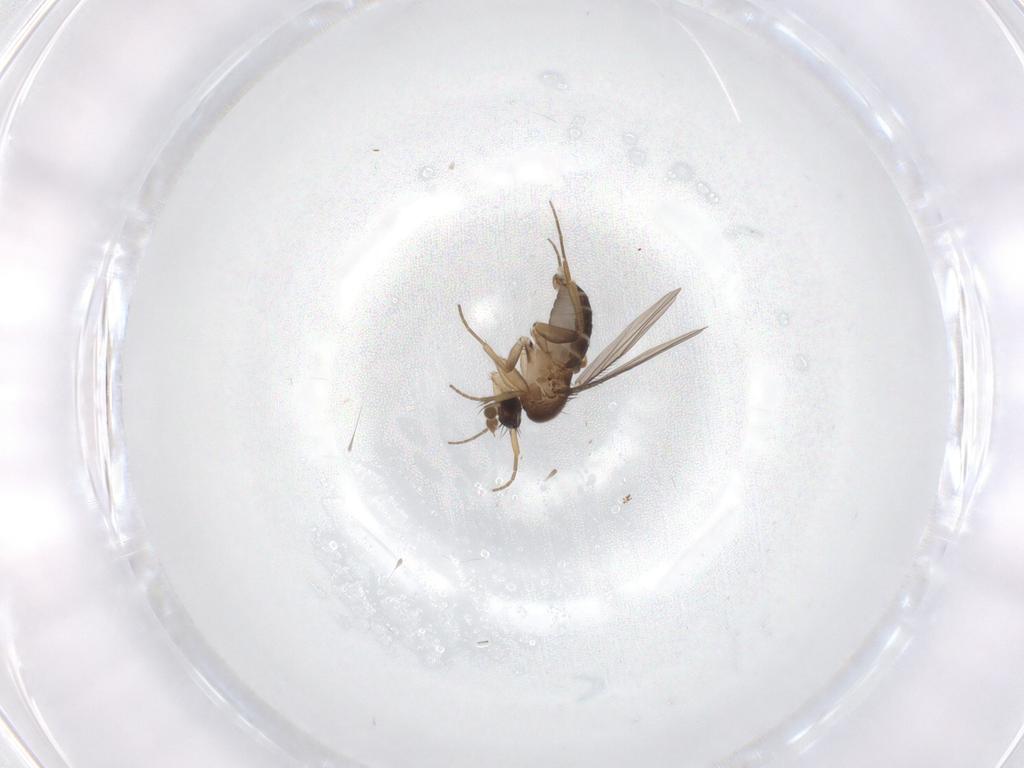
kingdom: Animalia
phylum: Arthropoda
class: Insecta
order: Diptera
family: Phoridae
